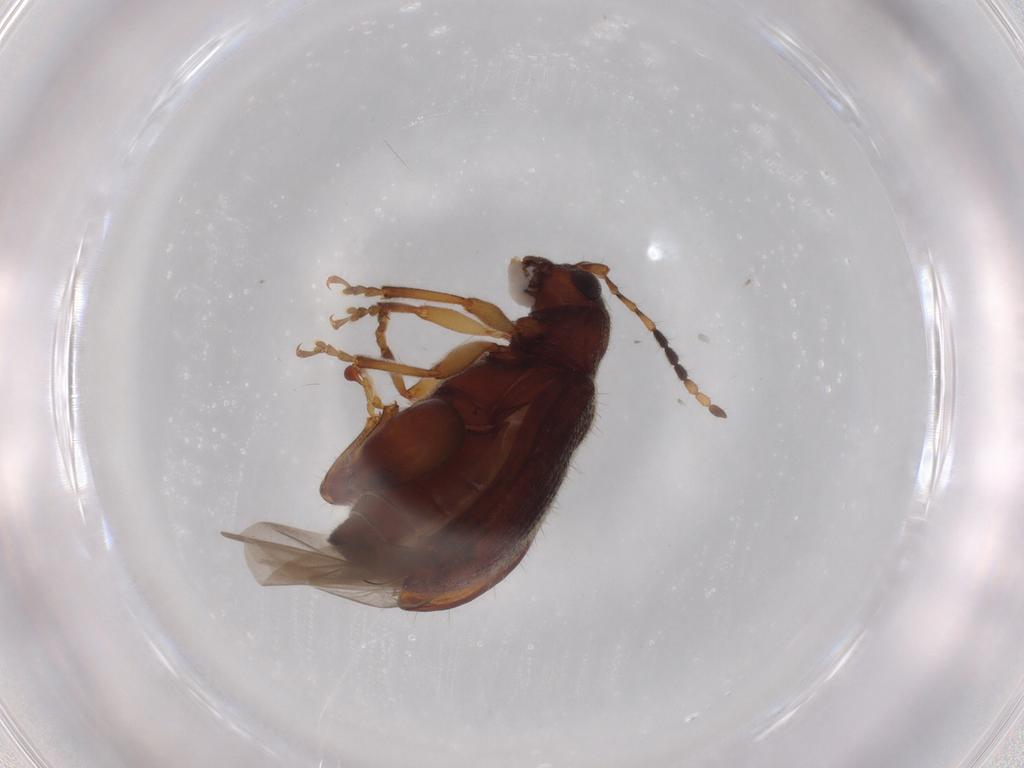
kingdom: Animalia
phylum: Arthropoda
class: Insecta
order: Coleoptera
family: Chrysomelidae
